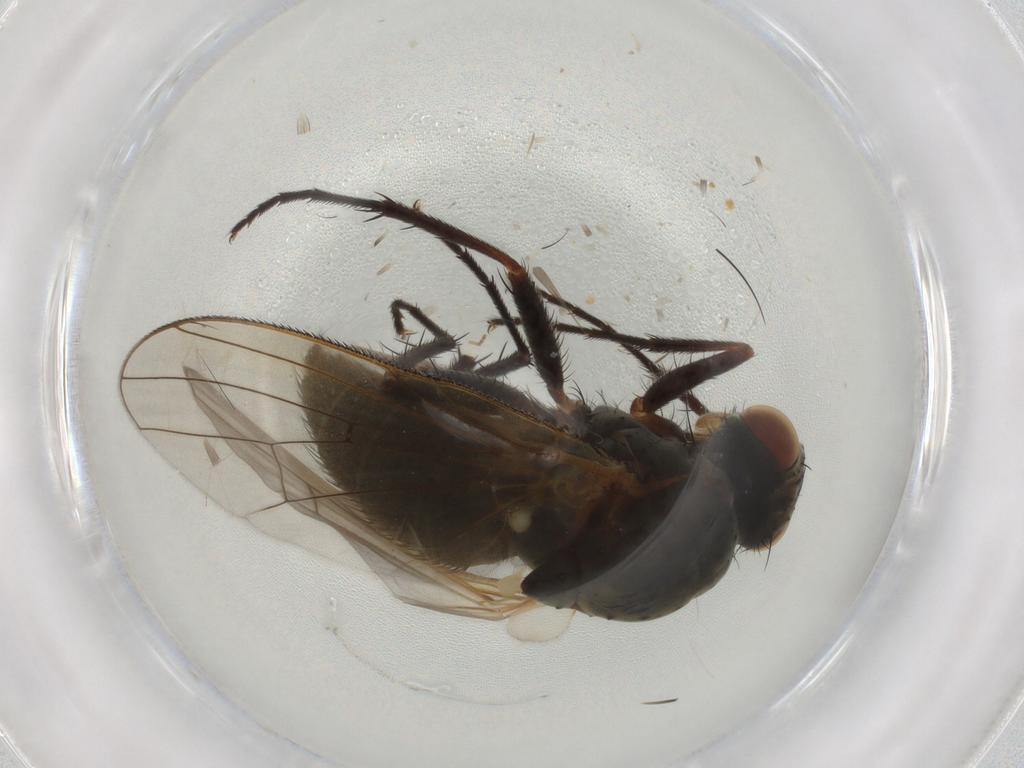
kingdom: Animalia
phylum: Arthropoda
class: Insecta
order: Diptera
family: Anthomyiidae
